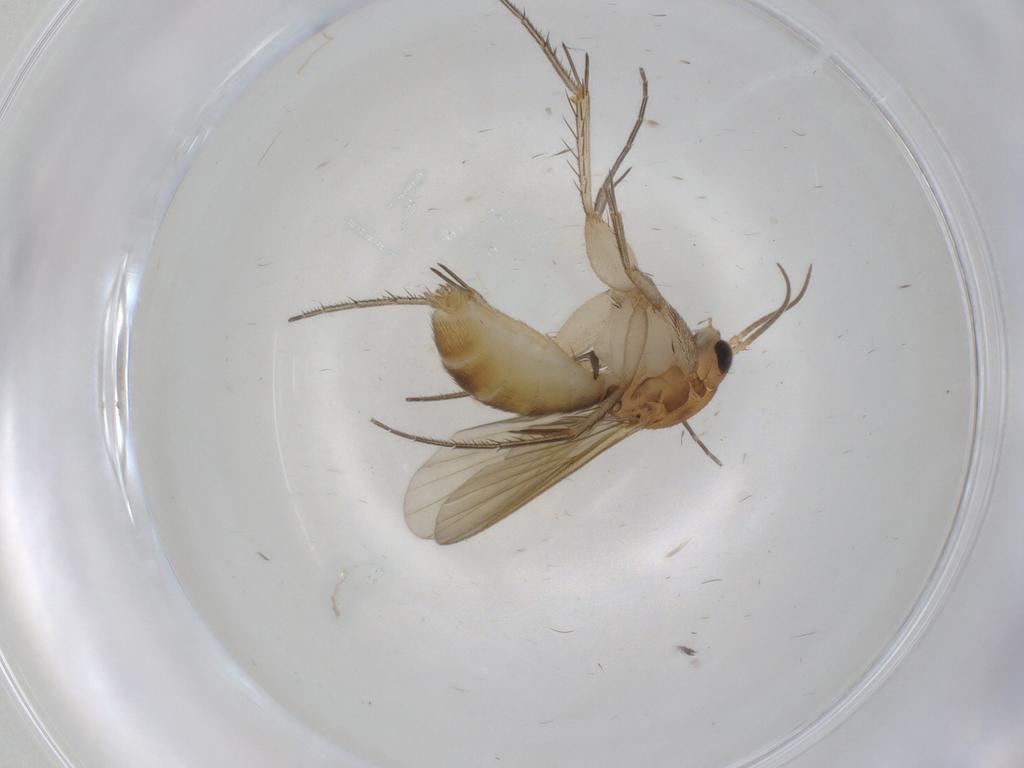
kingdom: Animalia
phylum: Arthropoda
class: Insecta
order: Diptera
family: Mycetophilidae
